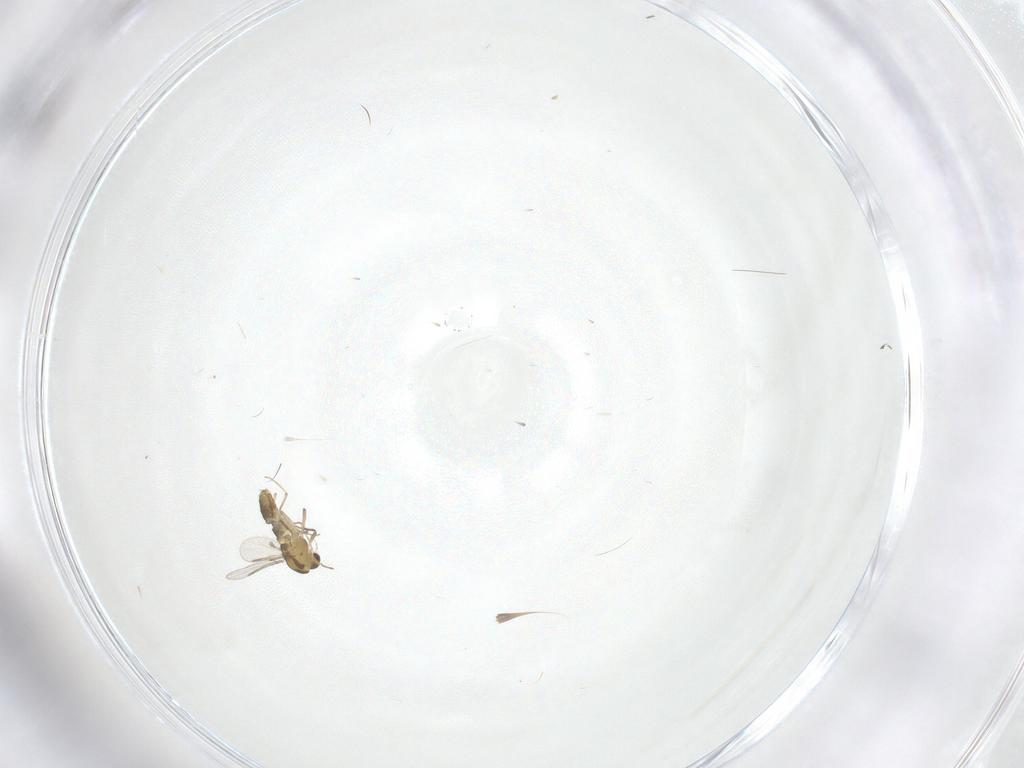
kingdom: Animalia
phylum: Arthropoda
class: Insecta
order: Diptera
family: Chironomidae
